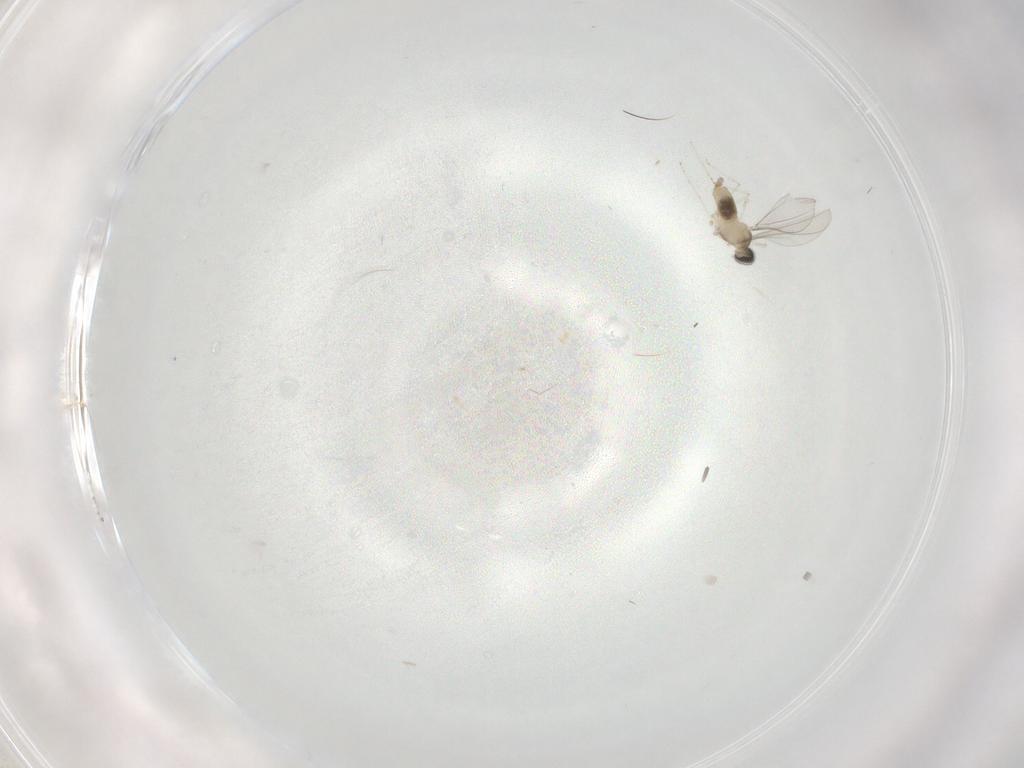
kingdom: Animalia
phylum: Arthropoda
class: Insecta
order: Diptera
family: Cecidomyiidae
